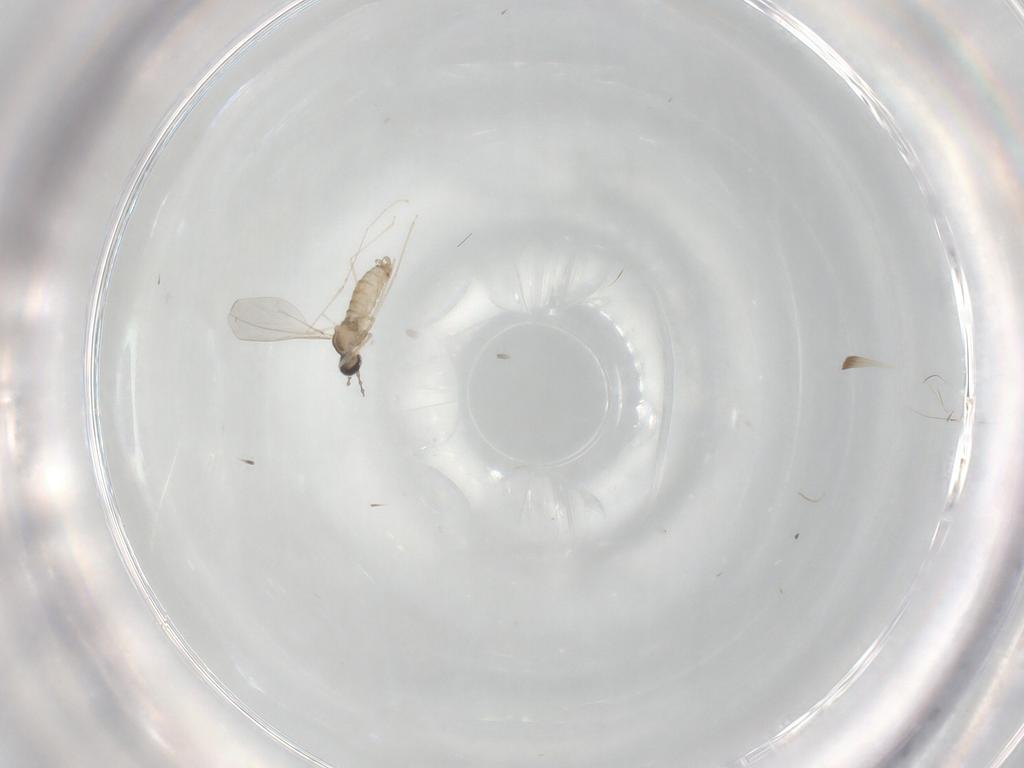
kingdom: Animalia
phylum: Arthropoda
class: Insecta
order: Diptera
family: Cecidomyiidae
